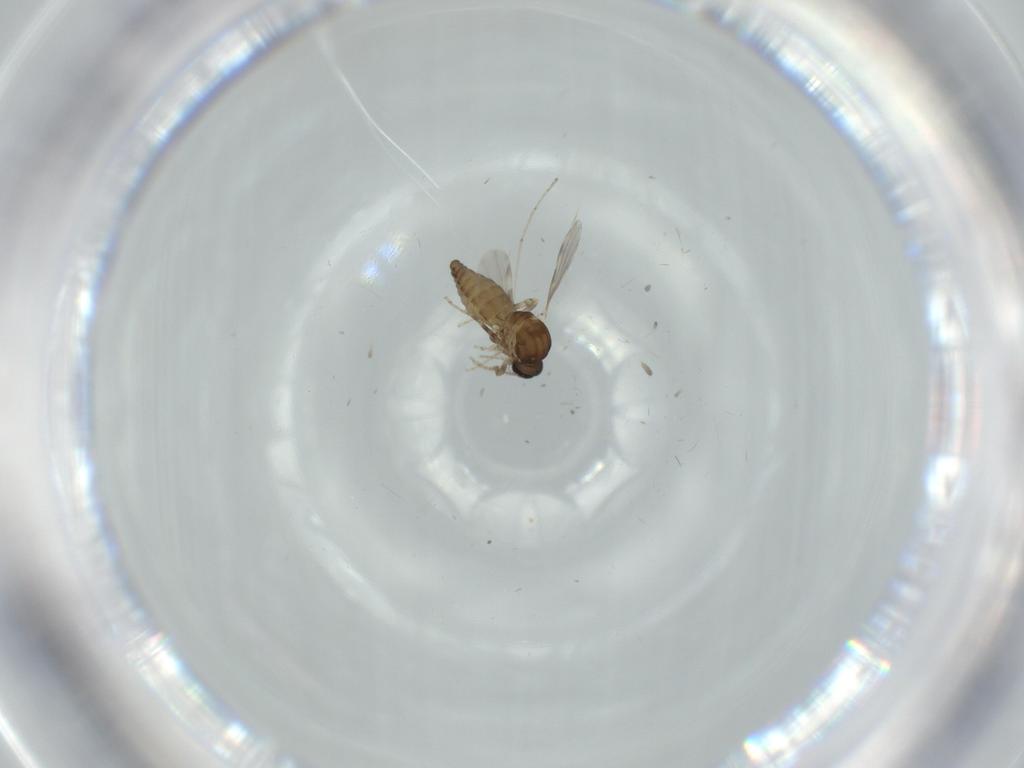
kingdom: Animalia
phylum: Arthropoda
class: Insecta
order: Diptera
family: Ceratopogonidae
